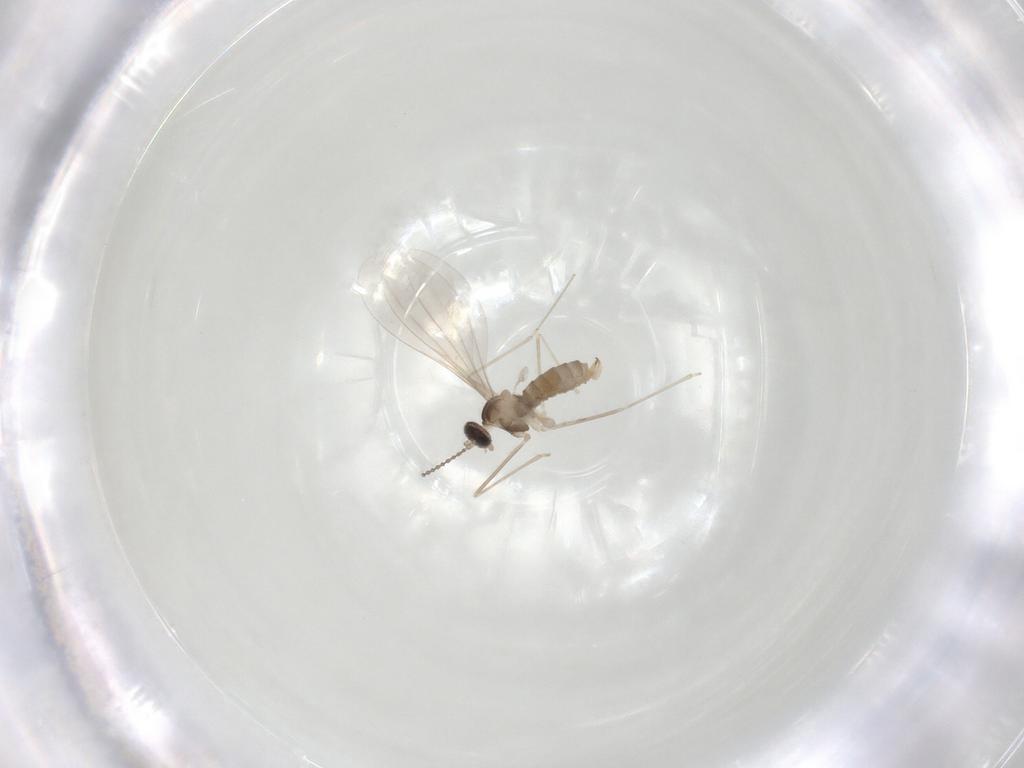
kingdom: Animalia
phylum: Arthropoda
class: Insecta
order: Diptera
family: Cecidomyiidae
